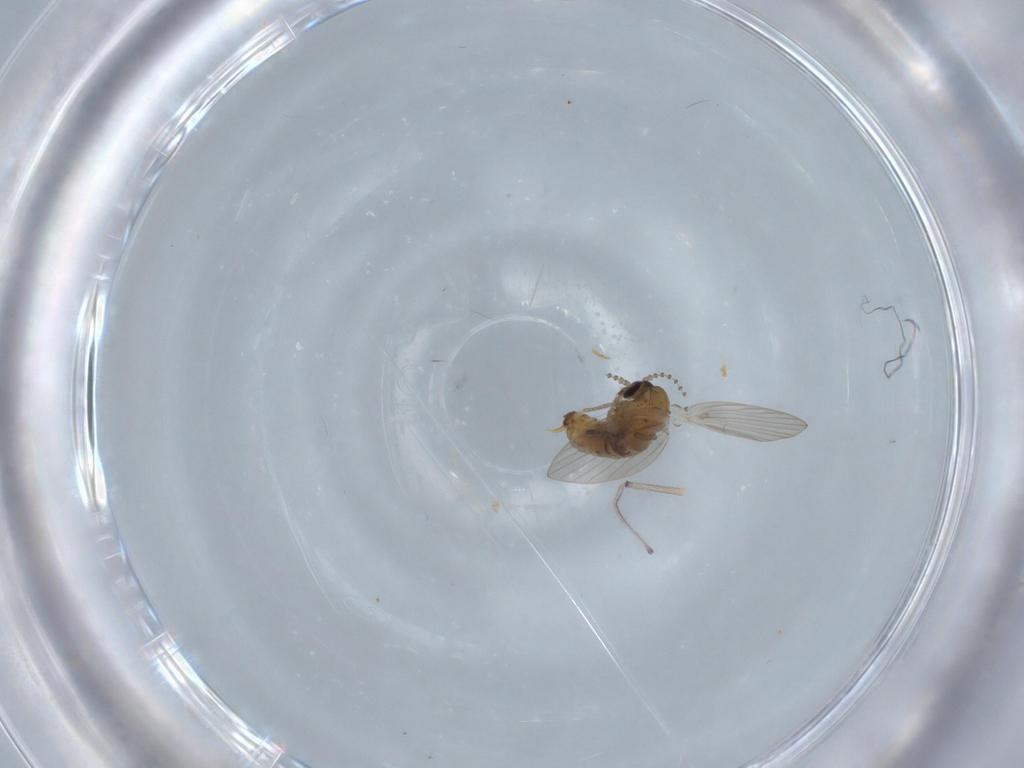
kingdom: Animalia
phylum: Arthropoda
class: Insecta
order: Diptera
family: Psychodidae
